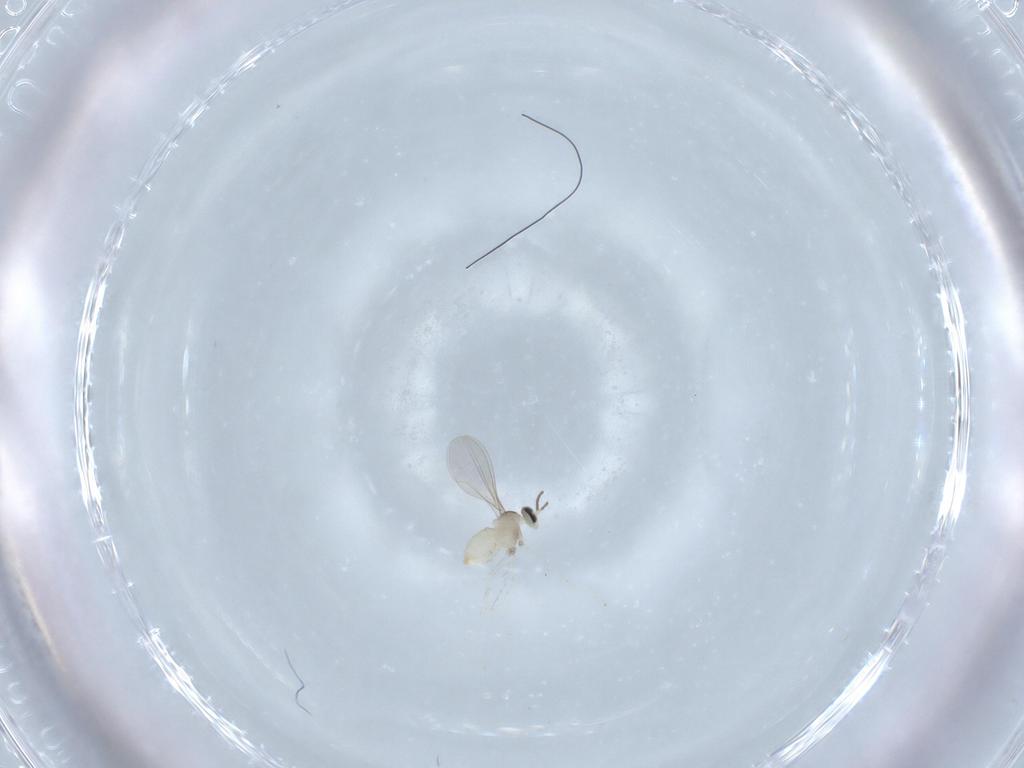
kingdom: Animalia
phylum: Arthropoda
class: Insecta
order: Diptera
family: Cecidomyiidae
